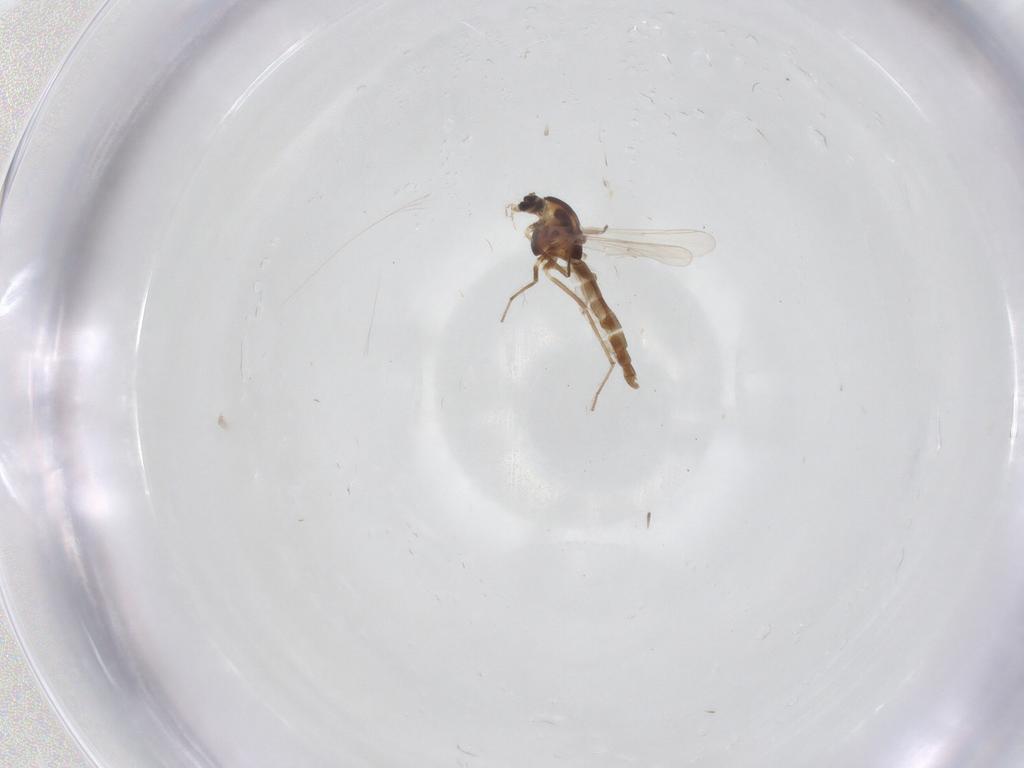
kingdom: Animalia
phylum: Arthropoda
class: Insecta
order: Diptera
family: Chironomidae
